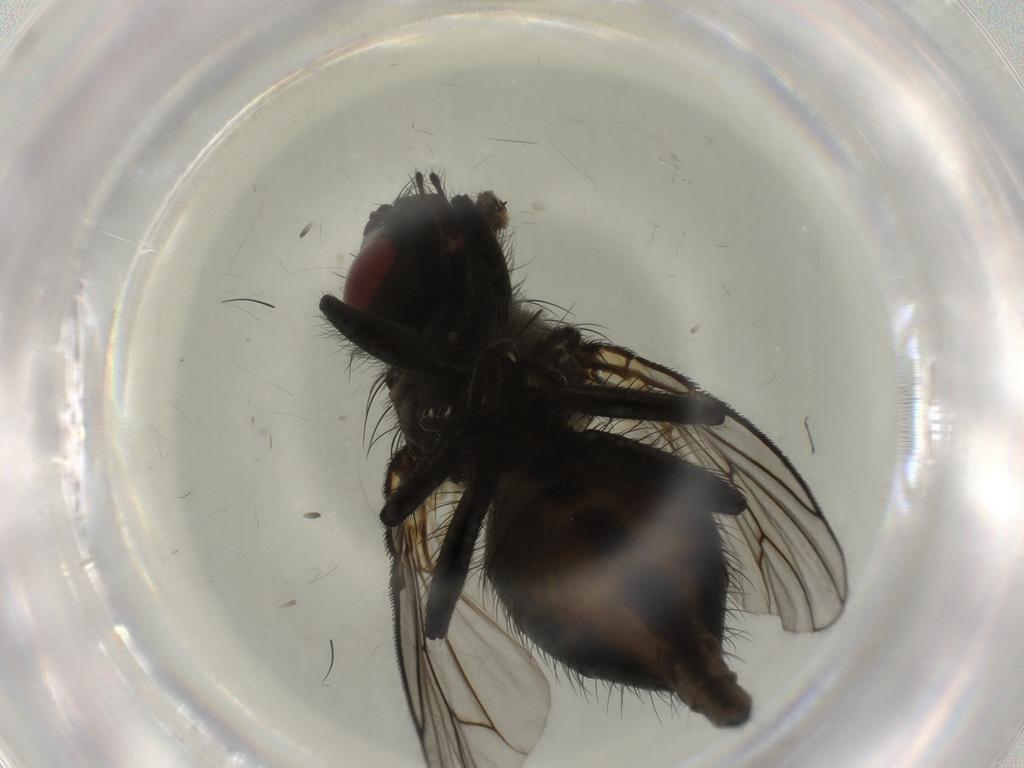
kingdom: Animalia
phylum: Arthropoda
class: Insecta
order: Diptera
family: Muscidae
